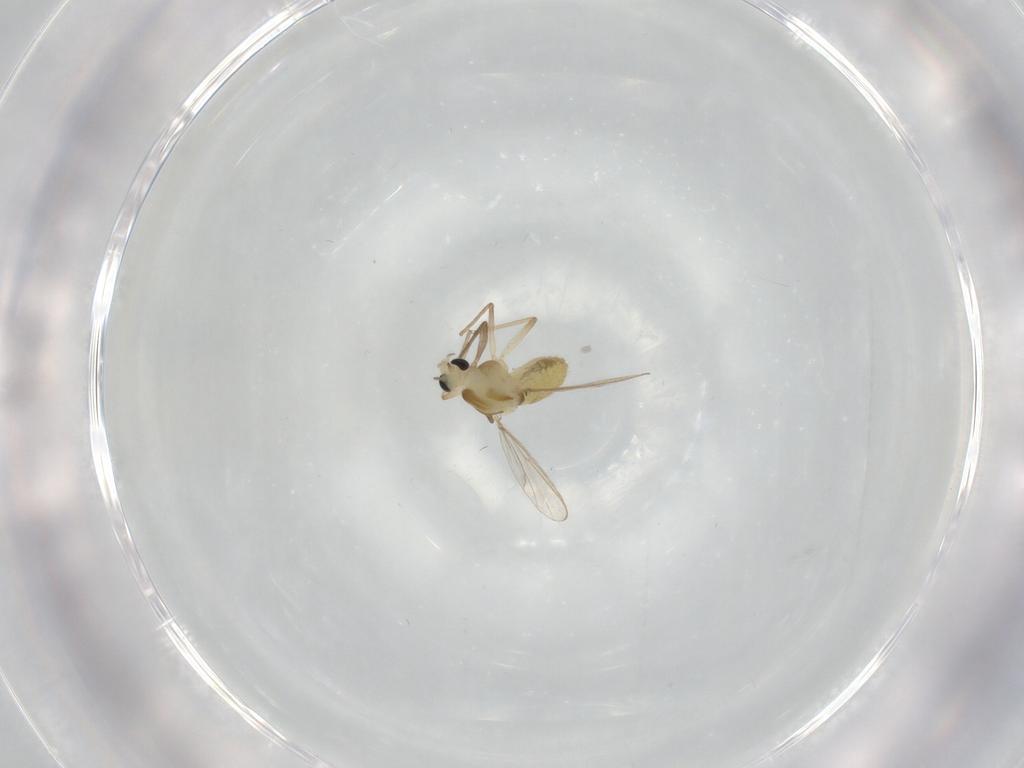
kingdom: Animalia
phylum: Arthropoda
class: Insecta
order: Diptera
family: Chironomidae
